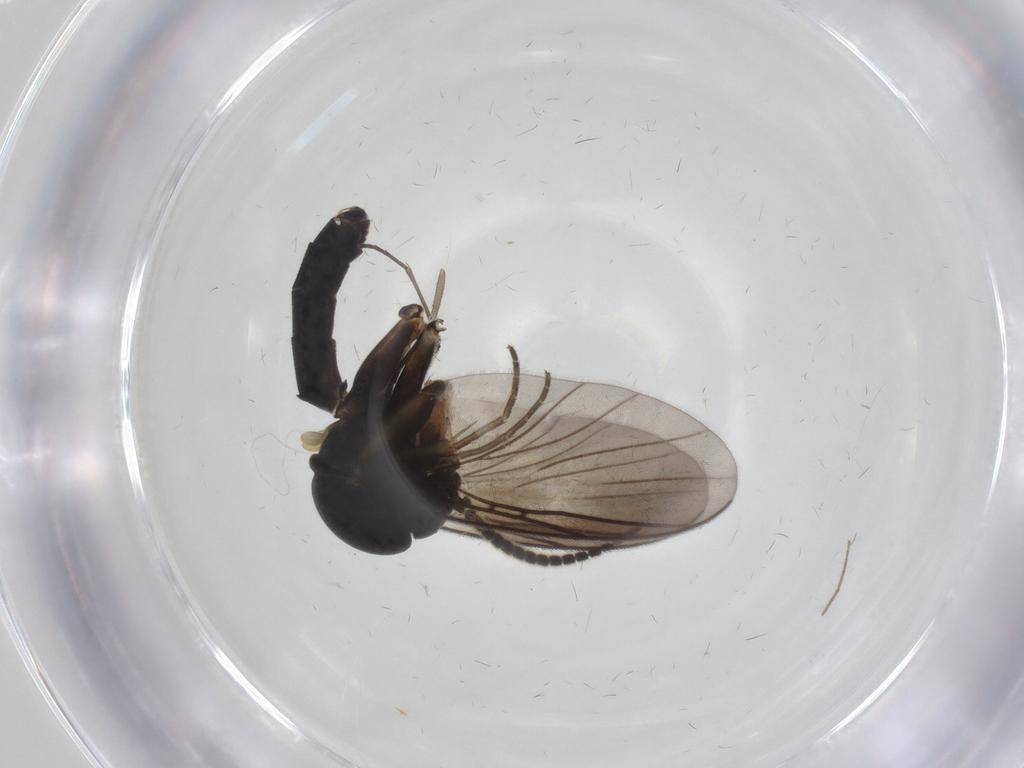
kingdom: Animalia
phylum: Arthropoda
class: Insecta
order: Diptera
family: Mycetophilidae
